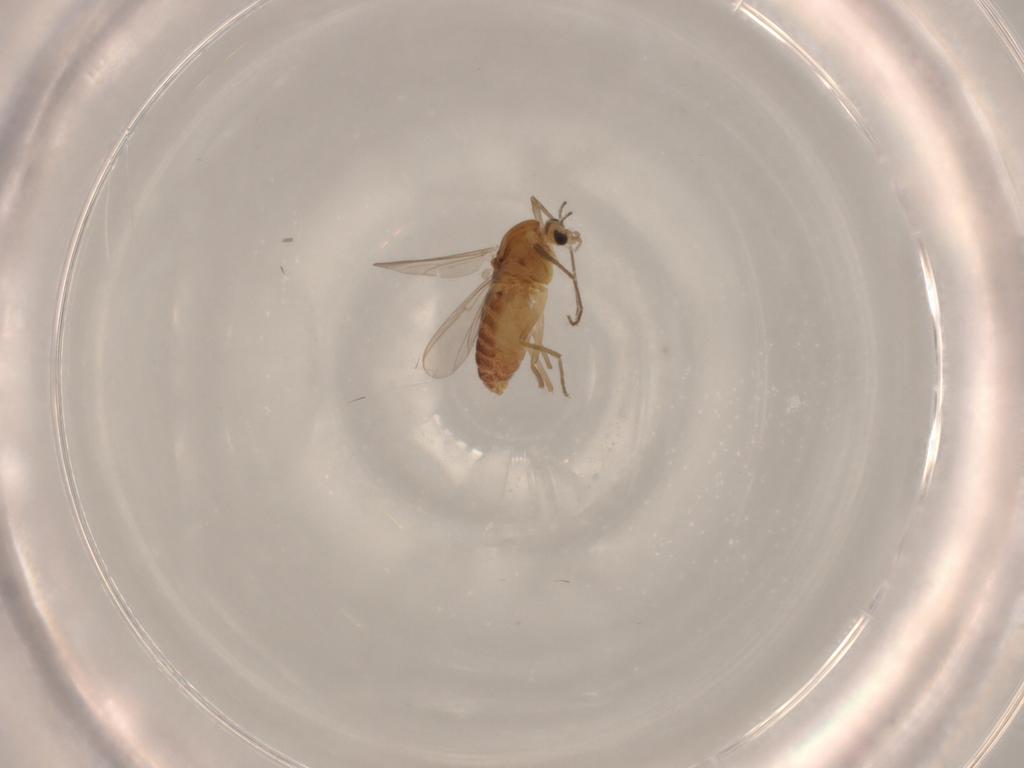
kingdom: Animalia
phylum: Arthropoda
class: Insecta
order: Diptera
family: Chironomidae
